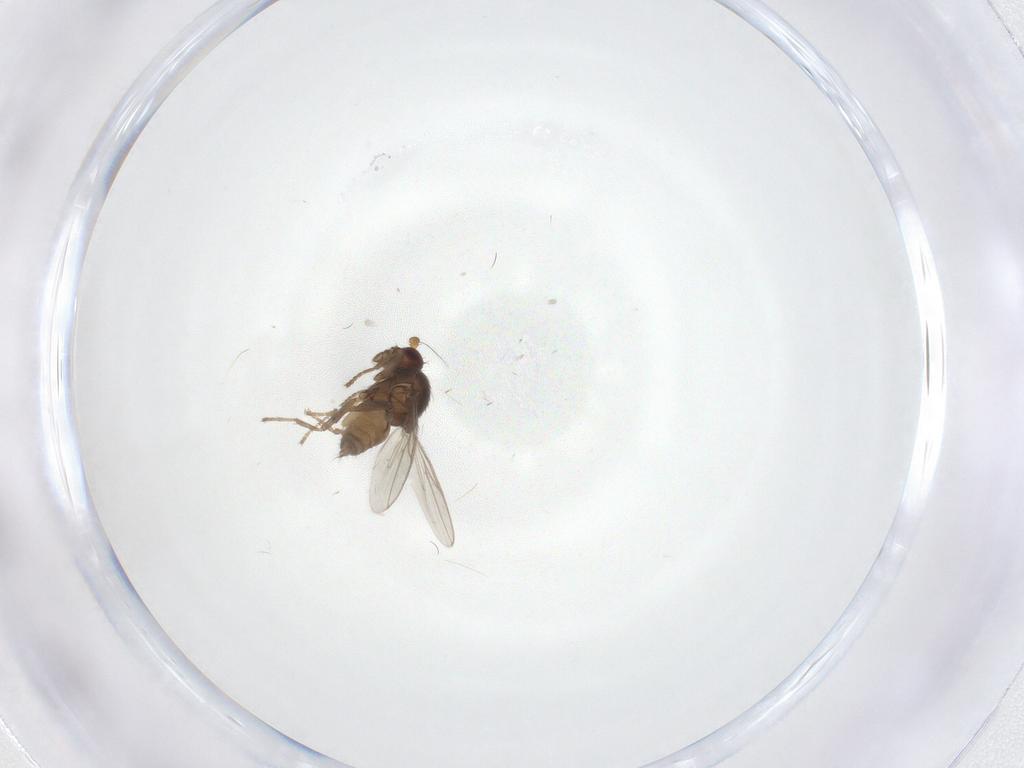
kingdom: Animalia
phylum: Arthropoda
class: Insecta
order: Diptera
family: Sphaeroceridae
